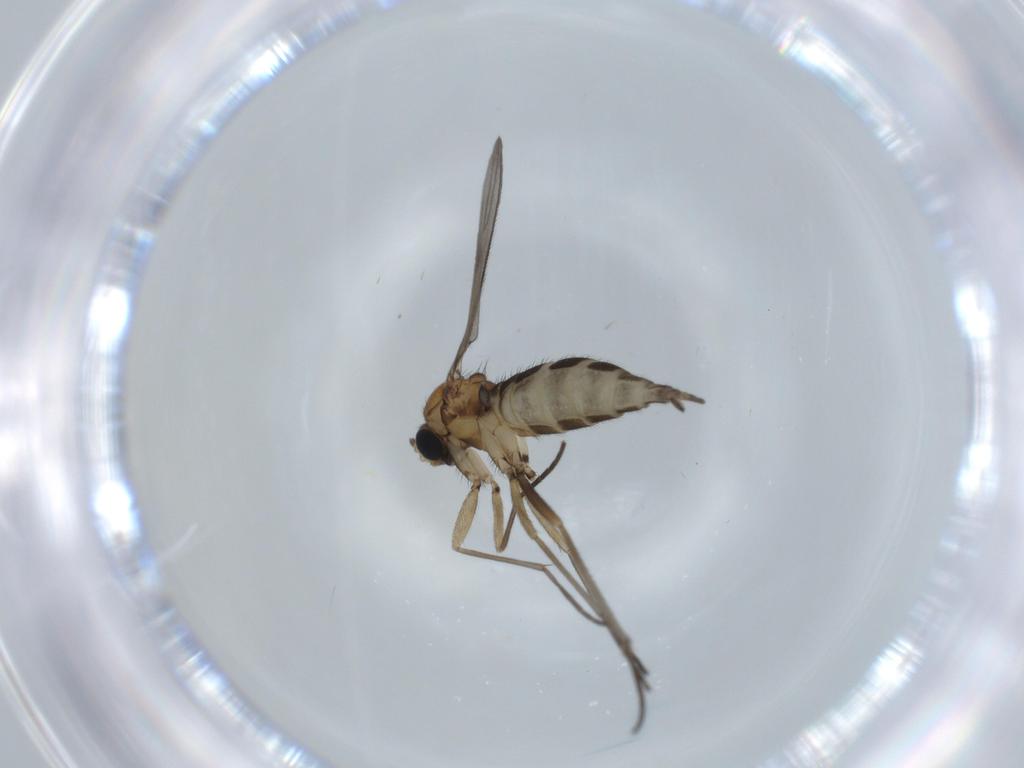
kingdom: Animalia
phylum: Arthropoda
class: Insecta
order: Diptera
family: Sciaridae
